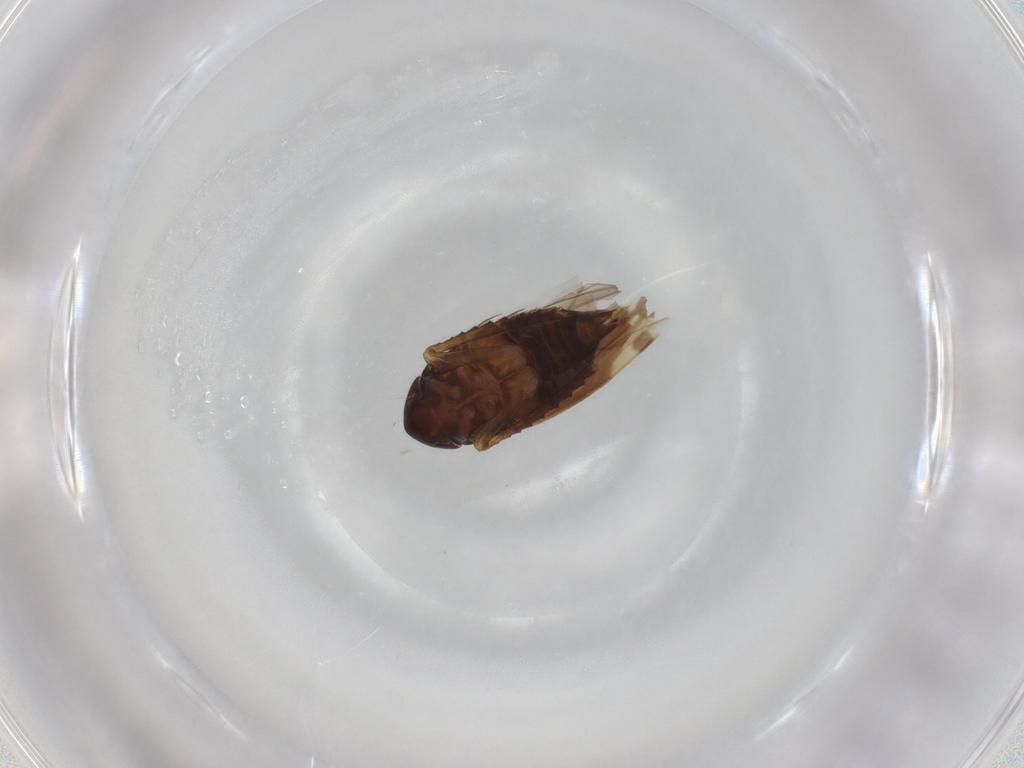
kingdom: Animalia
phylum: Arthropoda
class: Insecta
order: Hemiptera
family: Cicadellidae
